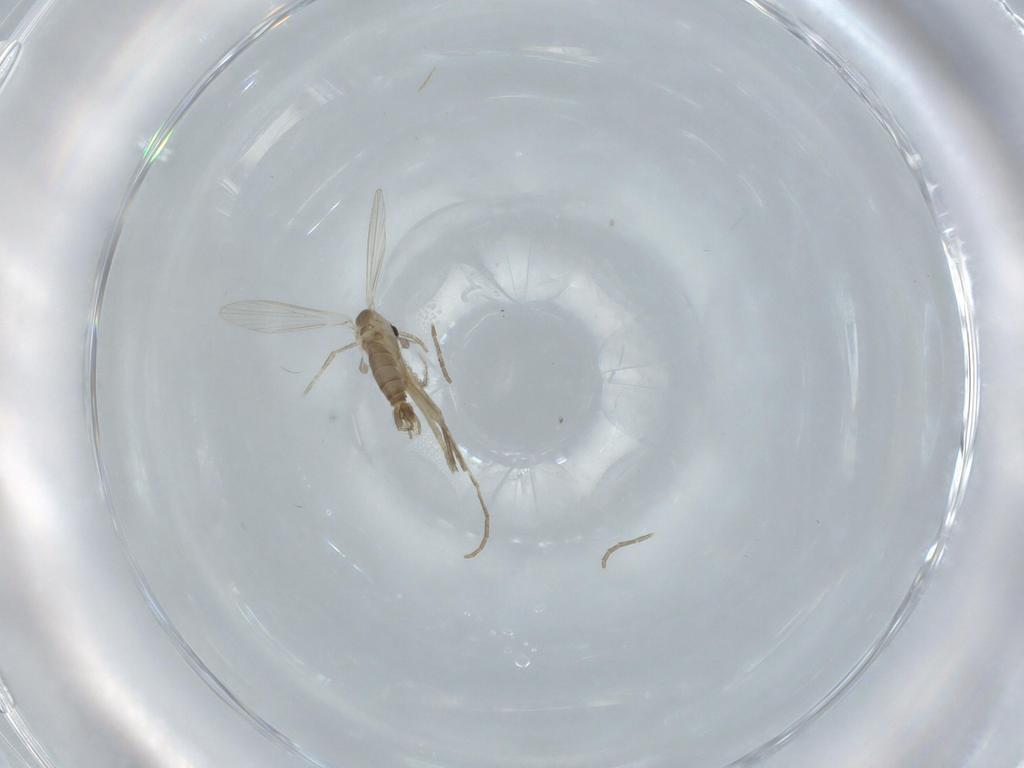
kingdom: Animalia
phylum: Arthropoda
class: Insecta
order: Diptera
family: Psychodidae
